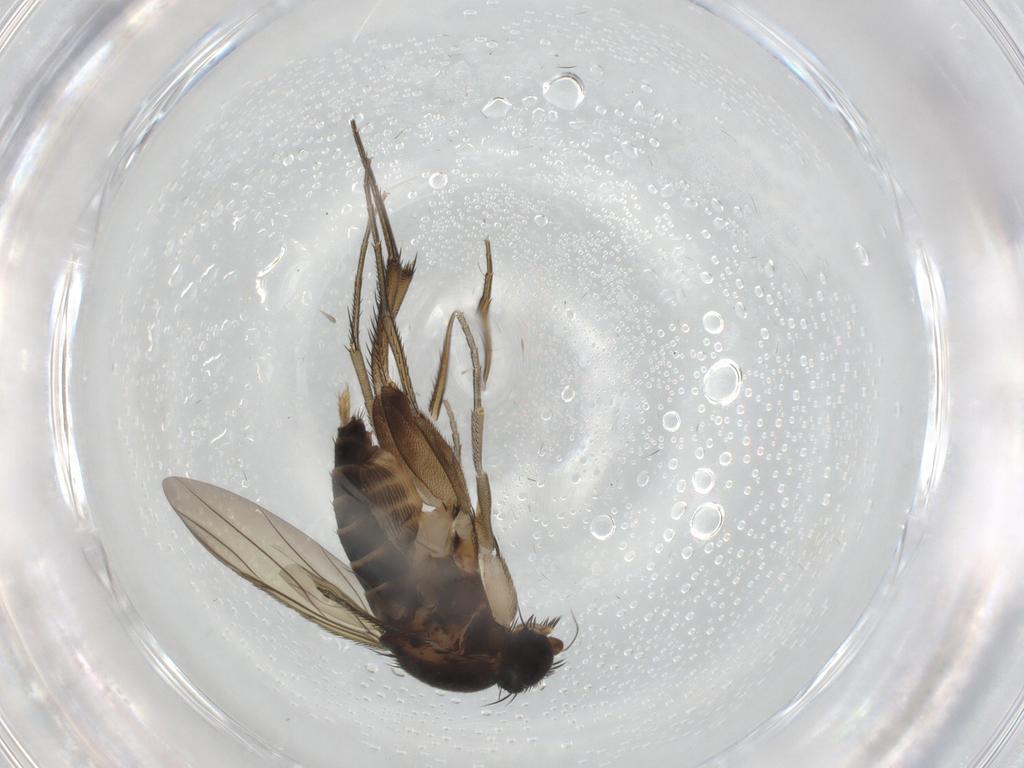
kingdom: Animalia
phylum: Arthropoda
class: Insecta
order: Diptera
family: Phoridae
